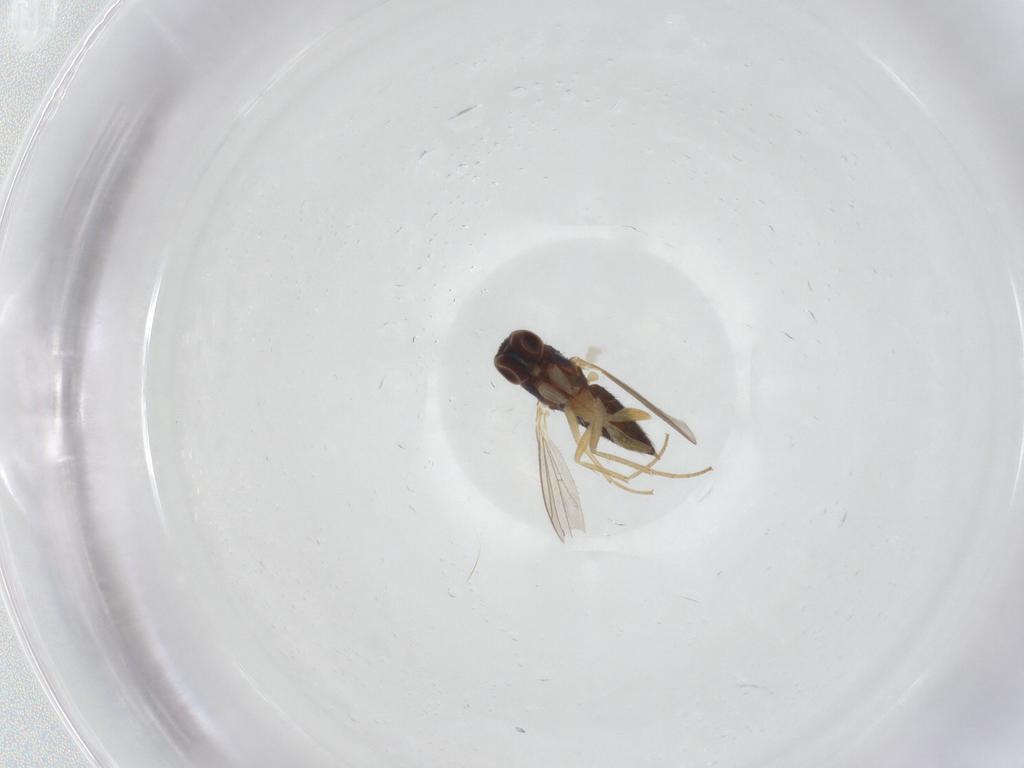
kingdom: Animalia
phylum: Arthropoda
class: Insecta
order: Diptera
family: Dolichopodidae
